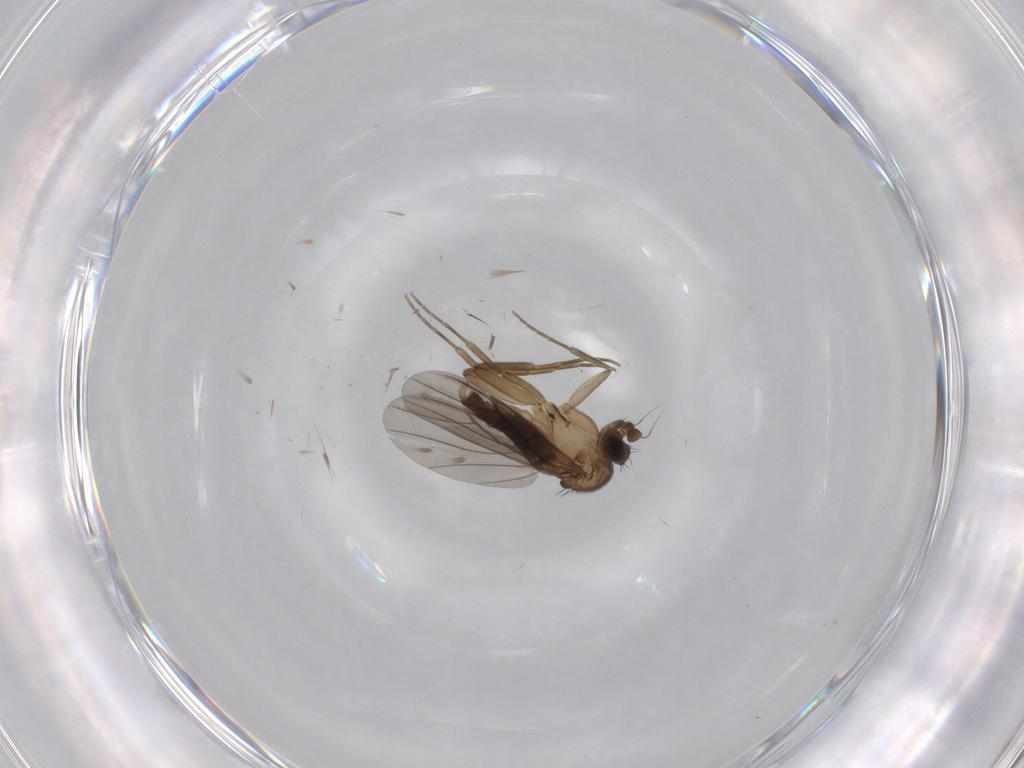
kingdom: Animalia
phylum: Arthropoda
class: Insecta
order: Diptera
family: Phoridae
